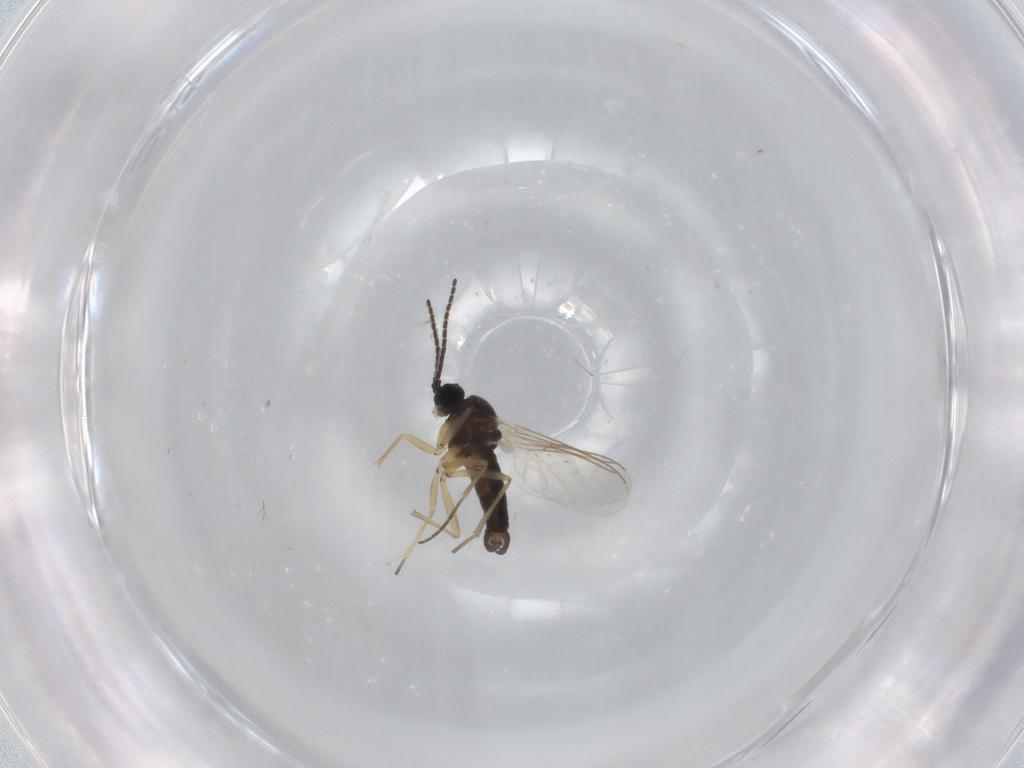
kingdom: Animalia
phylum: Arthropoda
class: Insecta
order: Diptera
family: Sciaridae
